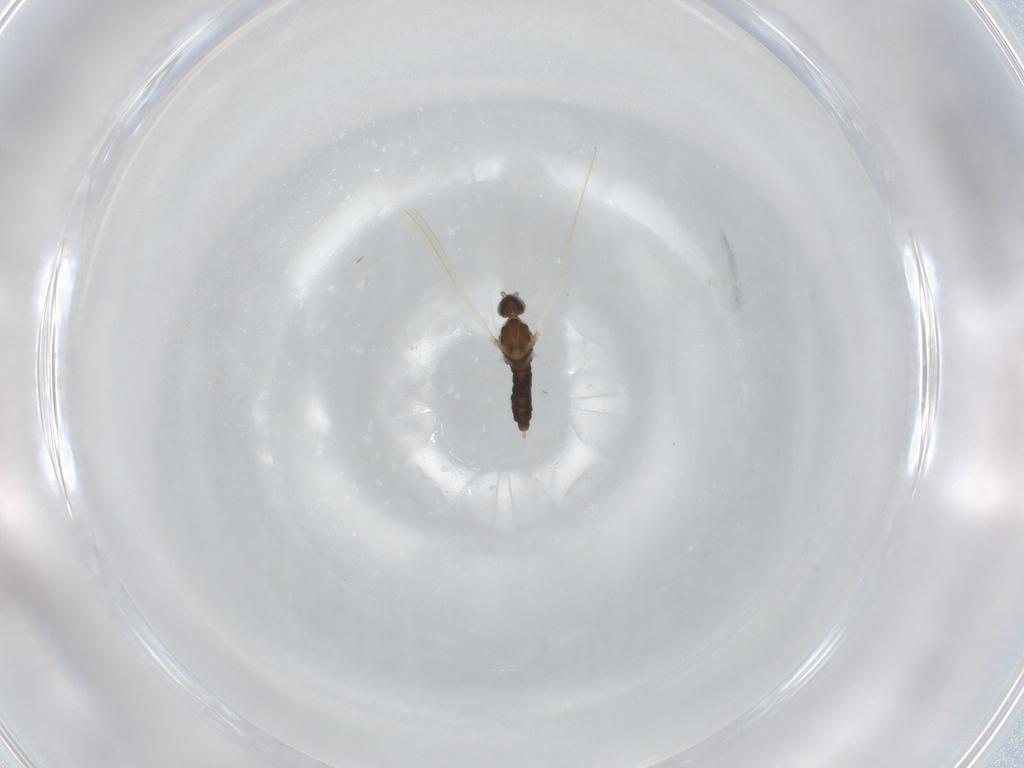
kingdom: Animalia
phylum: Arthropoda
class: Insecta
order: Diptera
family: Cecidomyiidae
